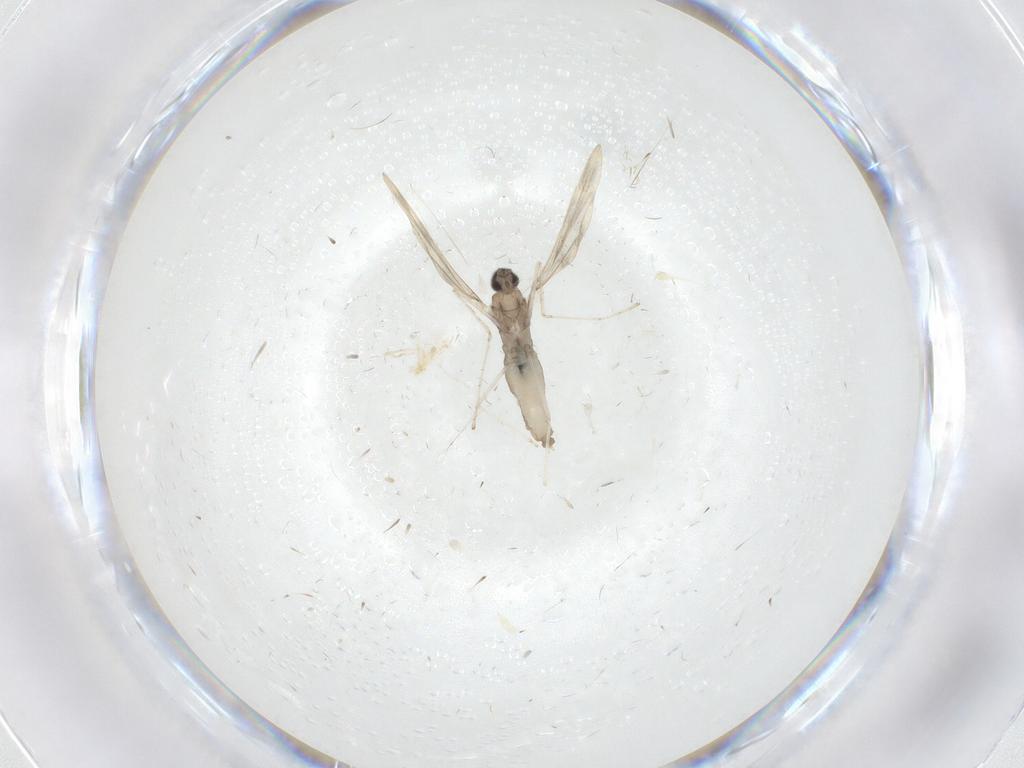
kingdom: Animalia
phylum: Arthropoda
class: Insecta
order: Diptera
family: Cecidomyiidae
